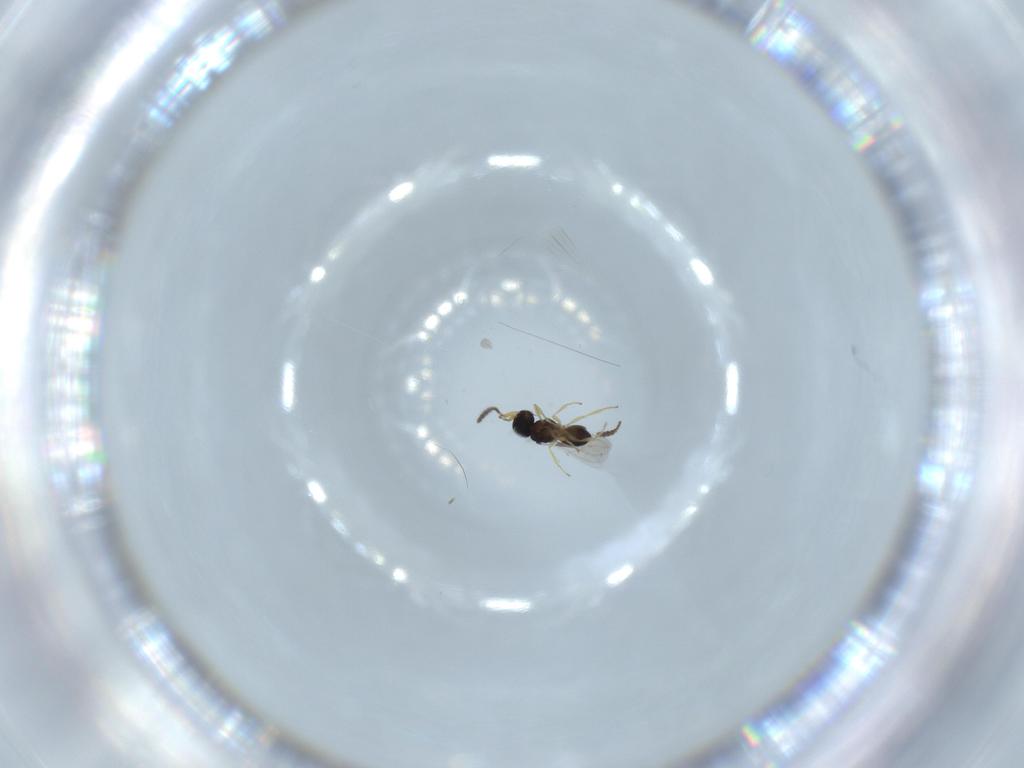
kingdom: Animalia
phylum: Arthropoda
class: Insecta
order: Hymenoptera
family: Scelionidae
